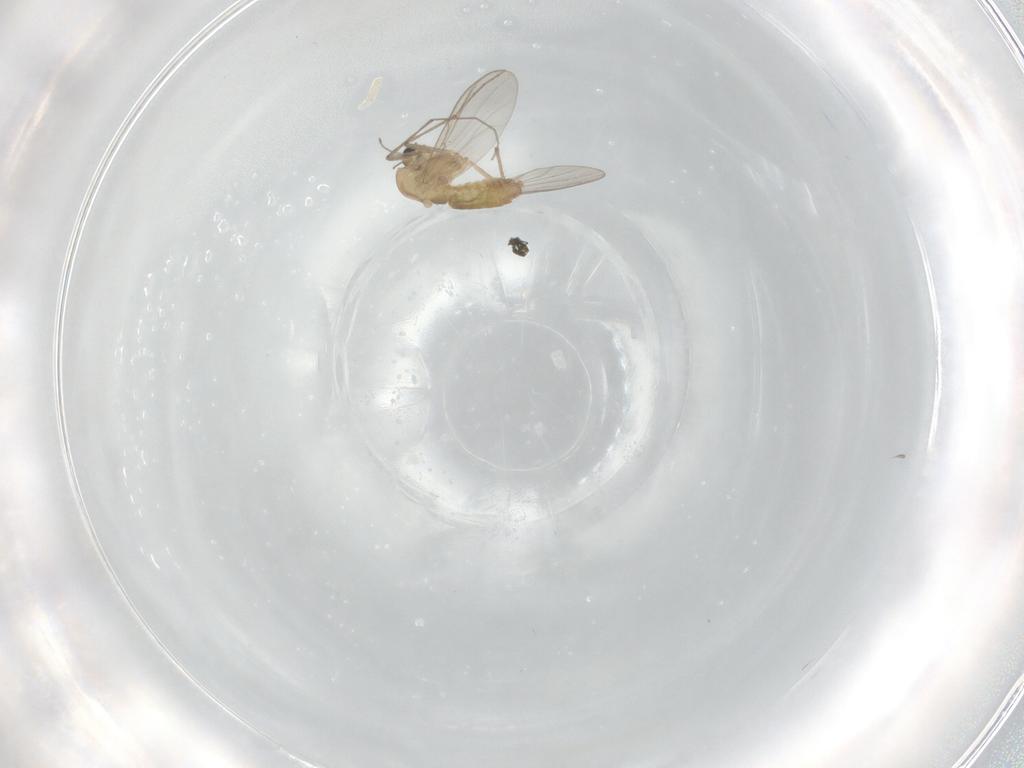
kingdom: Animalia
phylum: Arthropoda
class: Insecta
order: Diptera
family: Chironomidae
